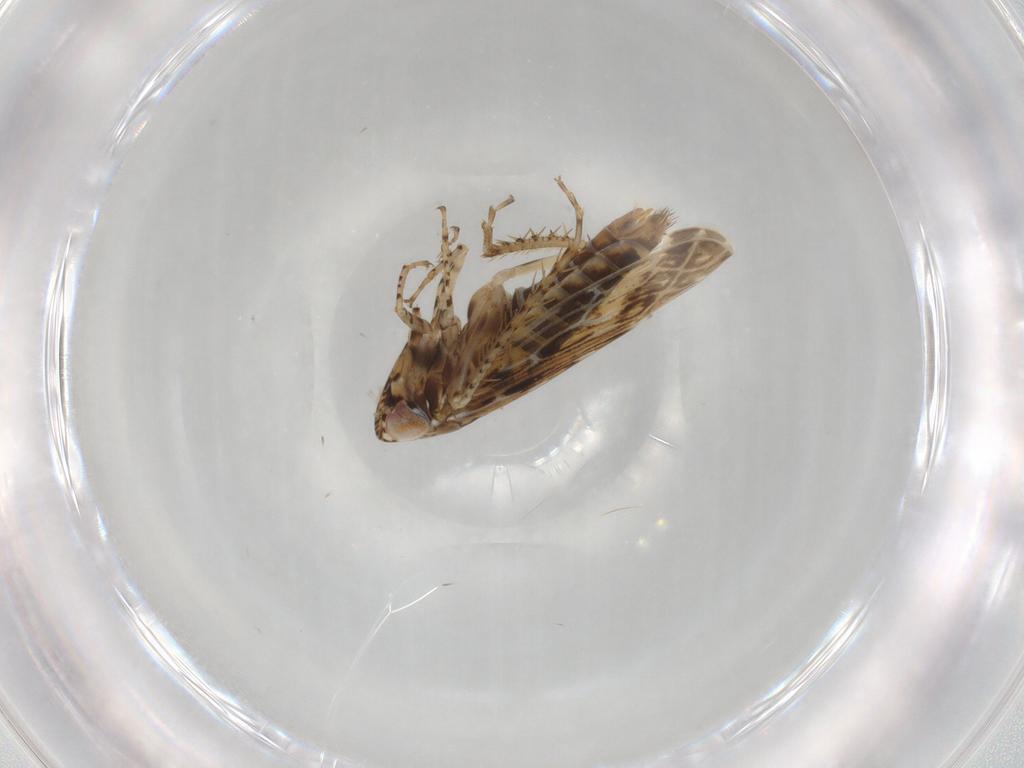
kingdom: Animalia
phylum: Arthropoda
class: Insecta
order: Hemiptera
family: Cicadellidae
